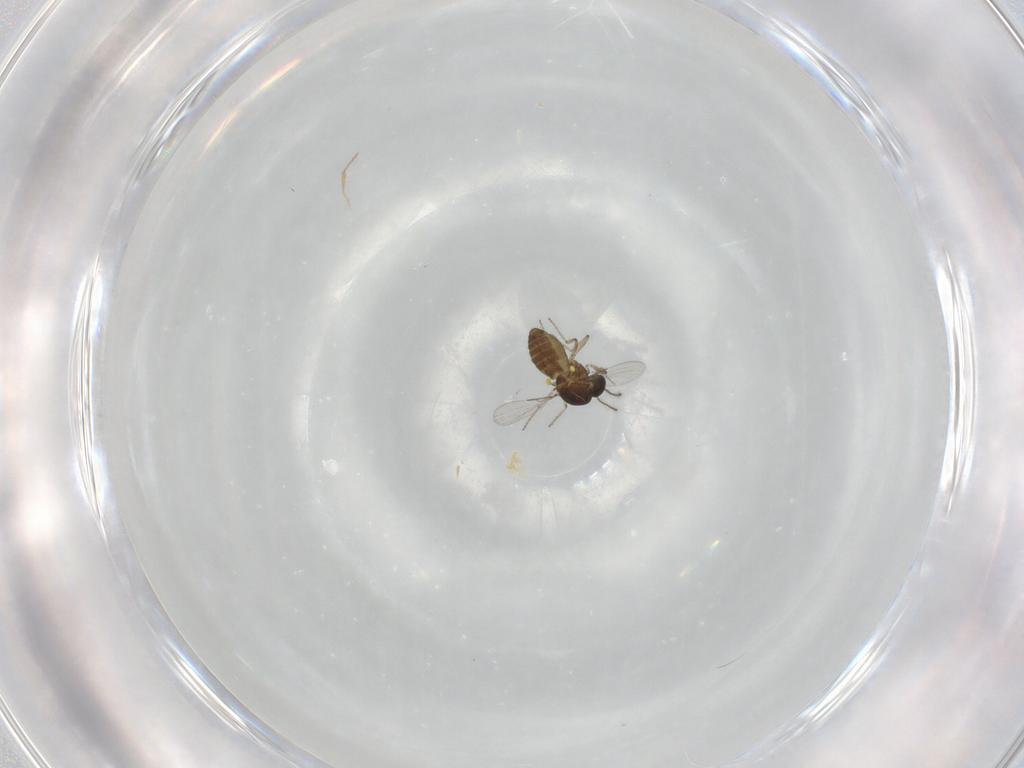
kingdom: Animalia
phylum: Arthropoda
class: Insecta
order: Diptera
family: Ceratopogonidae
